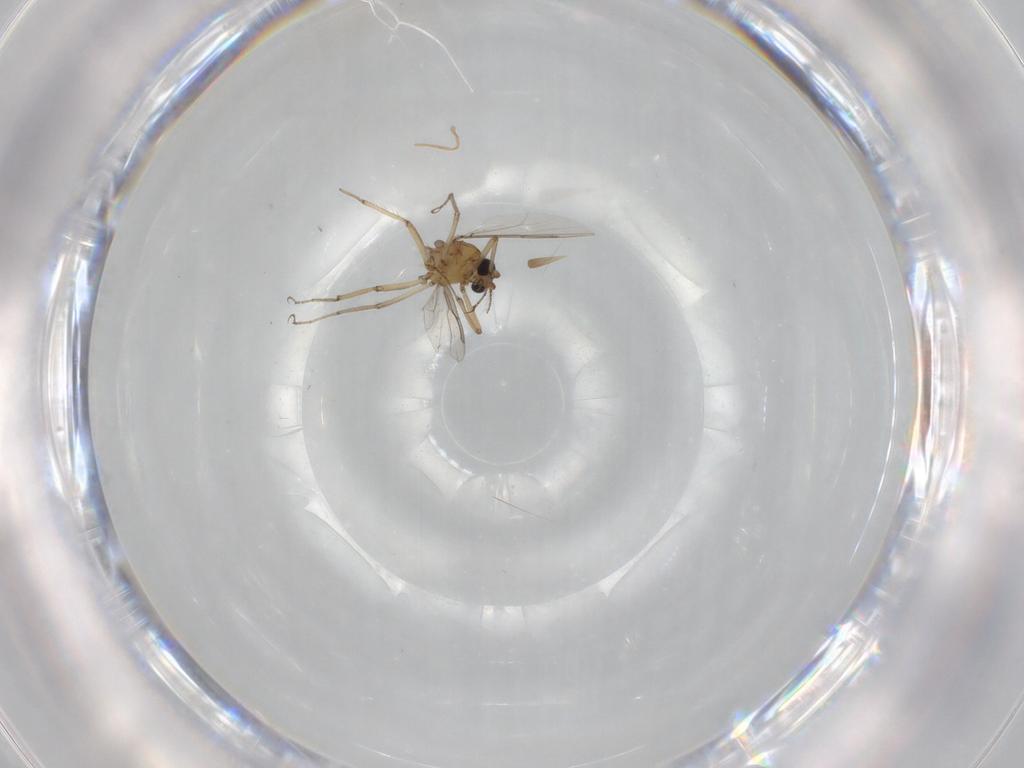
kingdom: Animalia
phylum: Arthropoda
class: Insecta
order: Diptera
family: Ceratopogonidae
